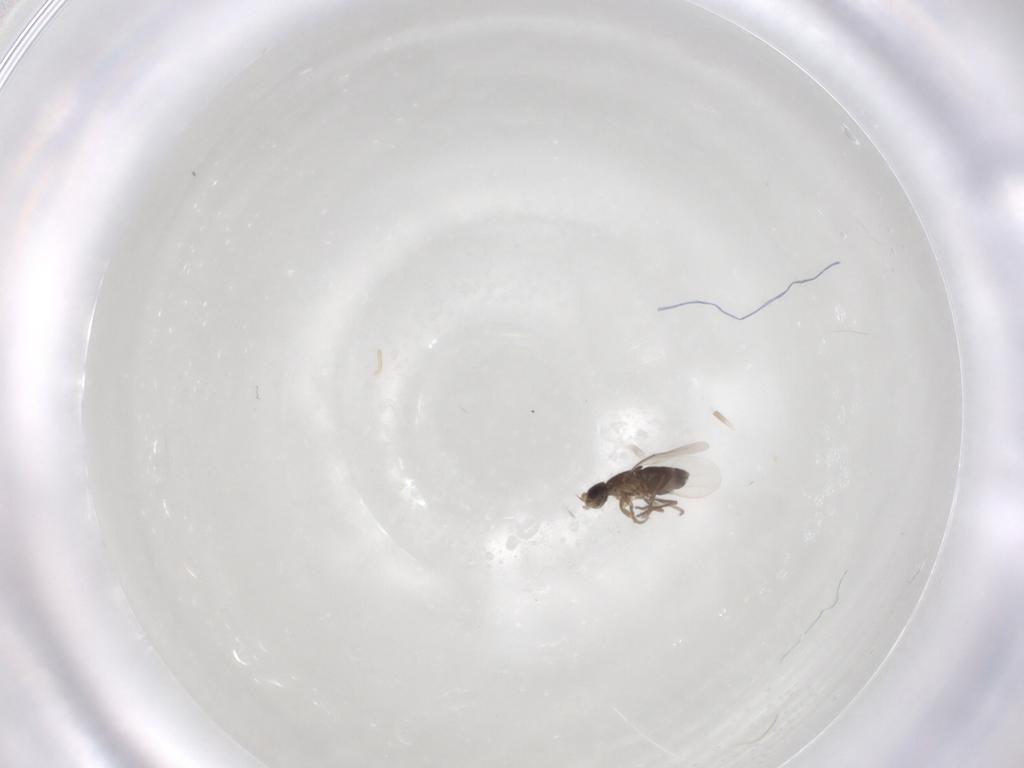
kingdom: Animalia
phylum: Arthropoda
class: Insecta
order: Diptera
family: Phoridae
